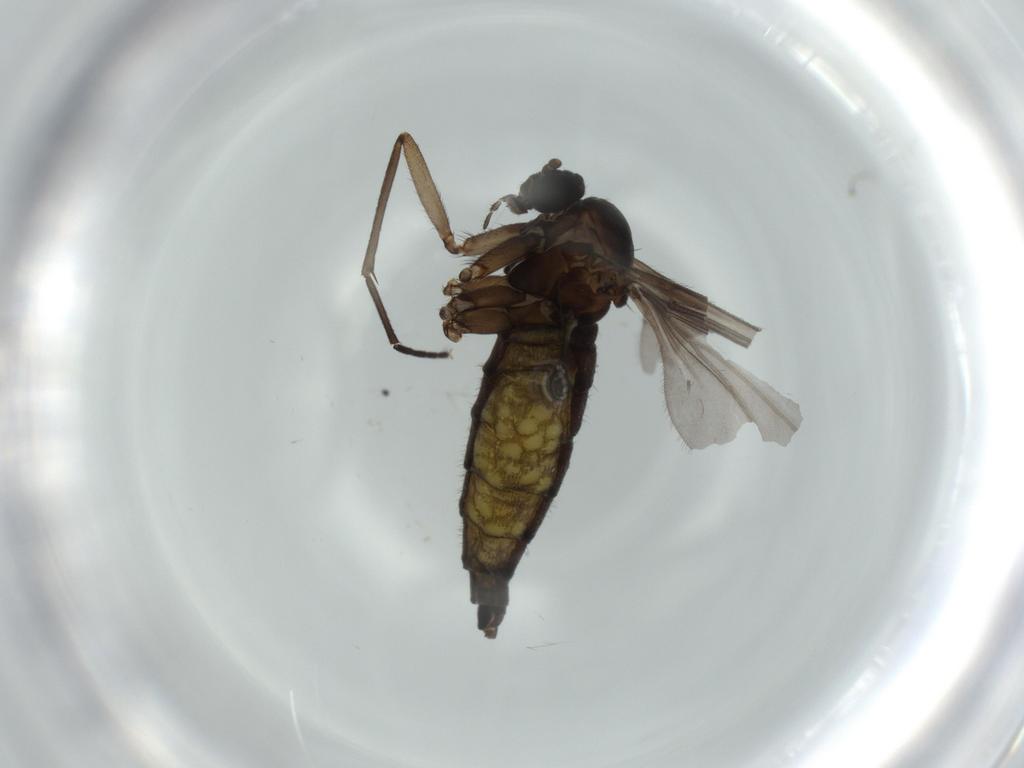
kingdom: Animalia
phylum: Arthropoda
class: Insecta
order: Diptera
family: Sciaridae
